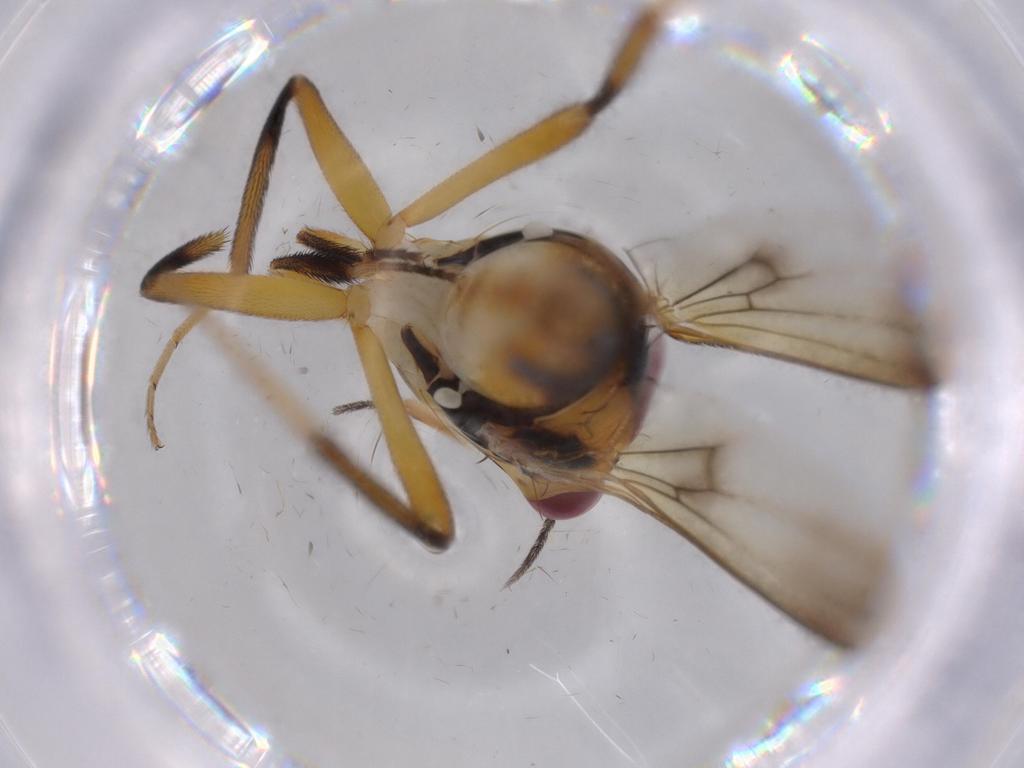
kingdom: Animalia
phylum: Arthropoda
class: Insecta
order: Diptera
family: Clusiidae
